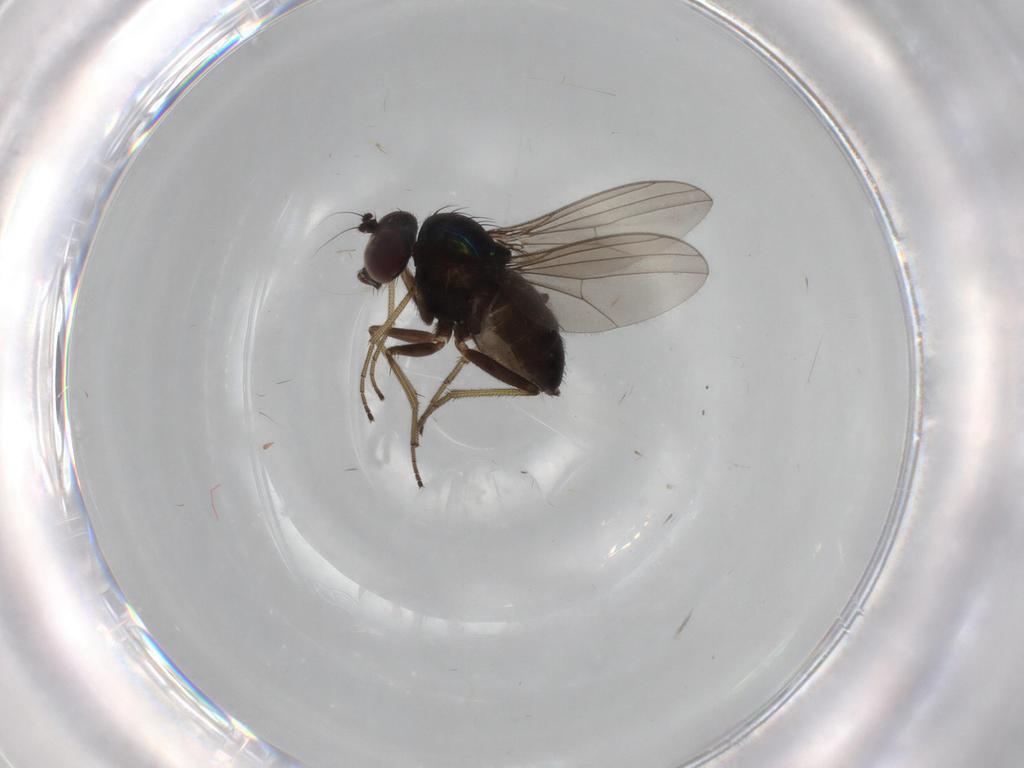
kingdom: Animalia
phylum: Arthropoda
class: Insecta
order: Diptera
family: Dolichopodidae
